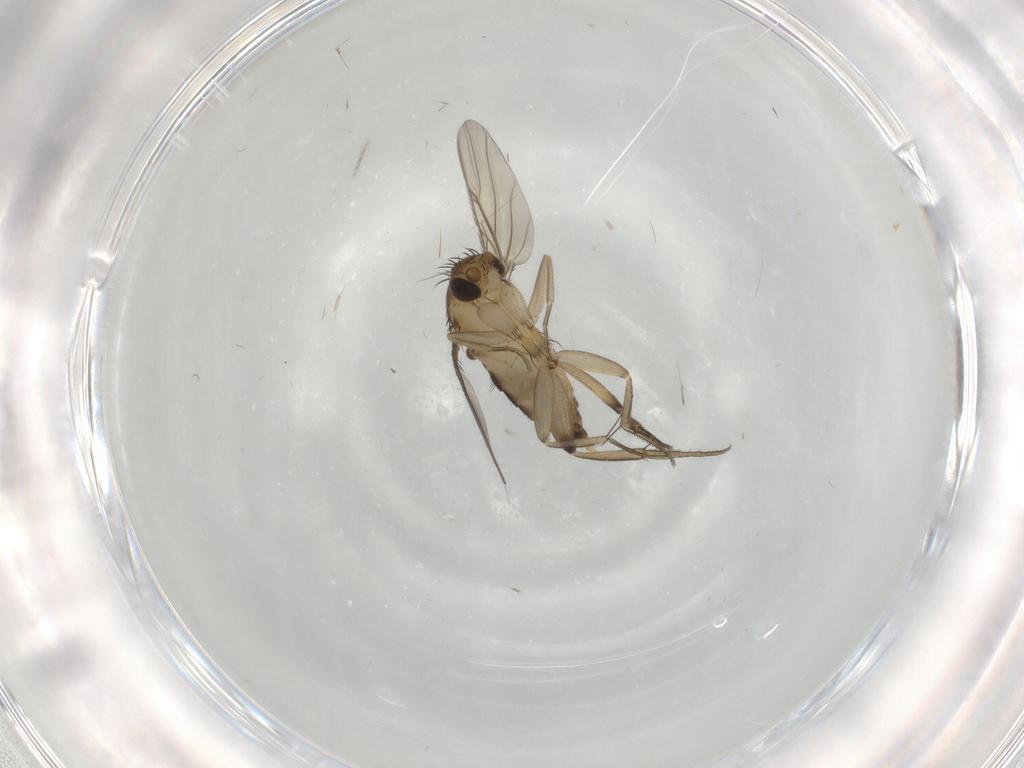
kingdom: Animalia
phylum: Arthropoda
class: Insecta
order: Diptera
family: Phoridae
